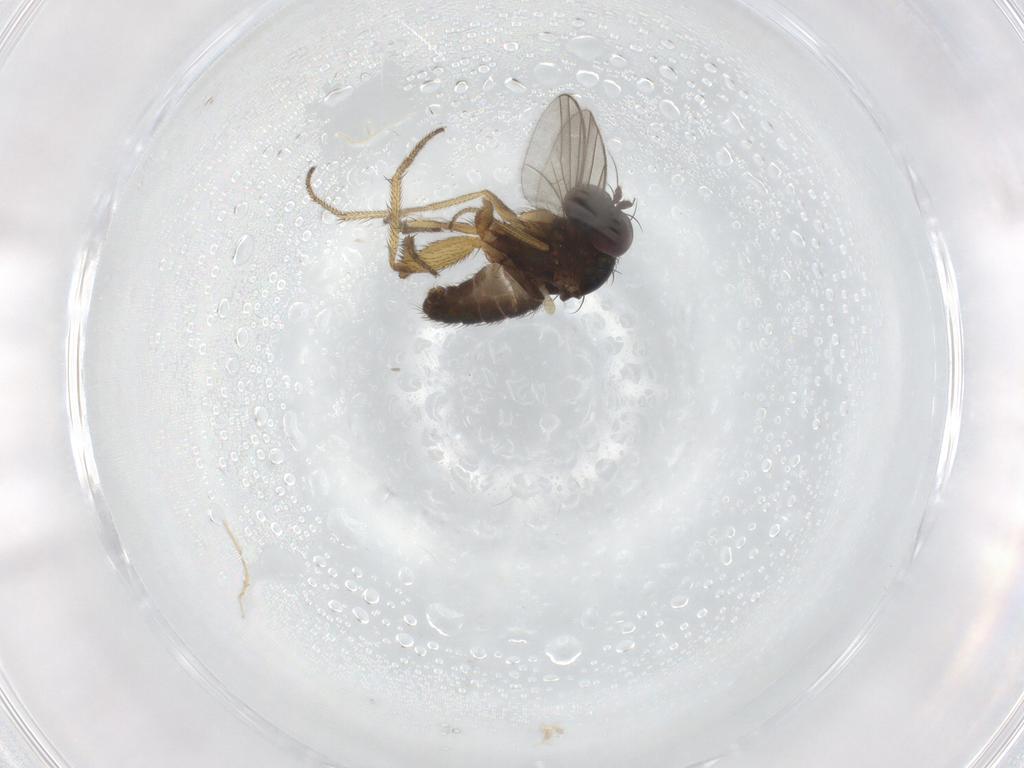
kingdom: Animalia
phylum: Arthropoda
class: Insecta
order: Diptera
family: Dolichopodidae
